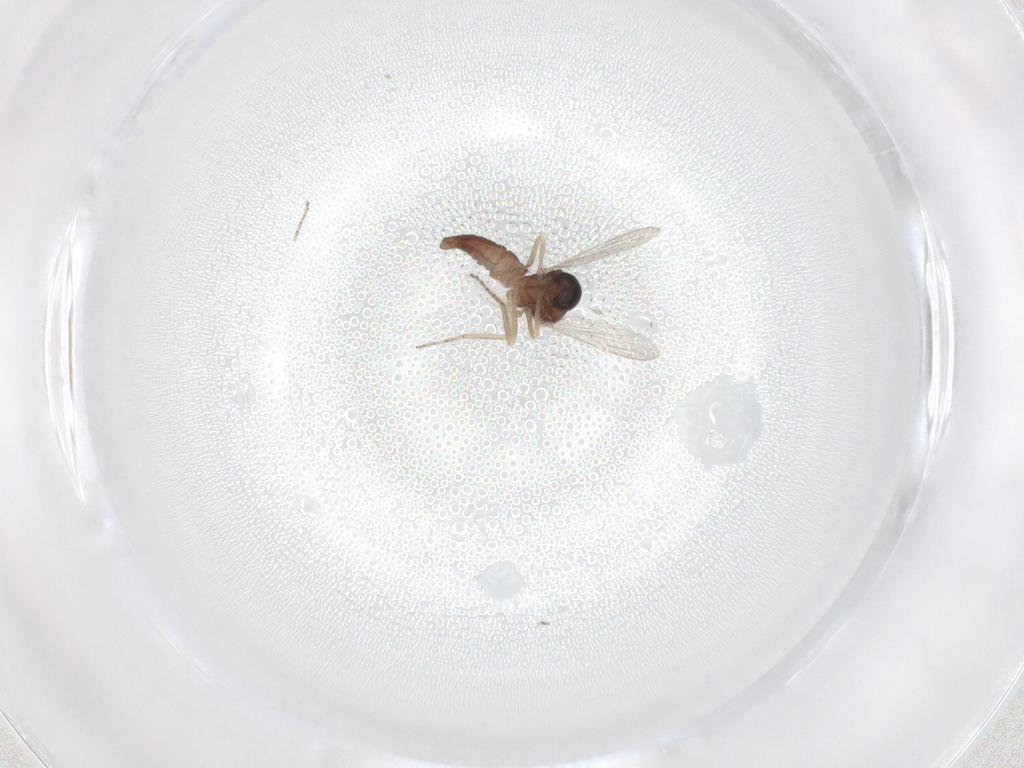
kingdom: Animalia
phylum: Arthropoda
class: Insecta
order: Diptera
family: Ceratopogonidae
